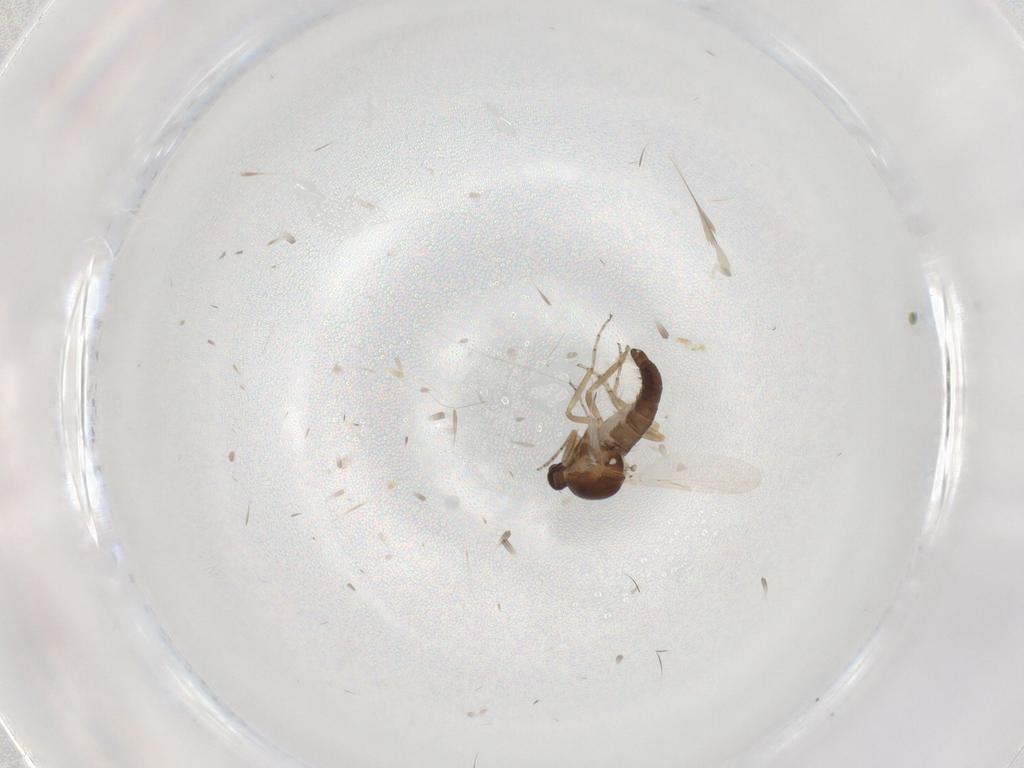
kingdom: Animalia
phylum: Arthropoda
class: Insecta
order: Diptera
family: Ceratopogonidae
